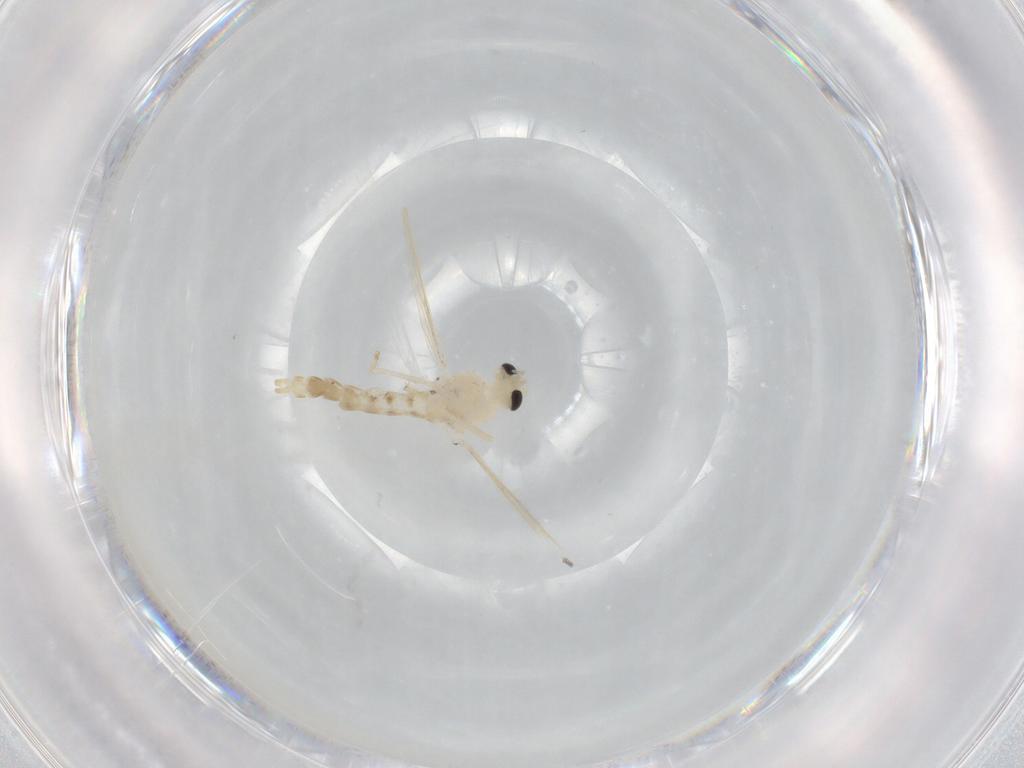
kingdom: Animalia
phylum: Arthropoda
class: Insecta
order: Diptera
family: Chironomidae
